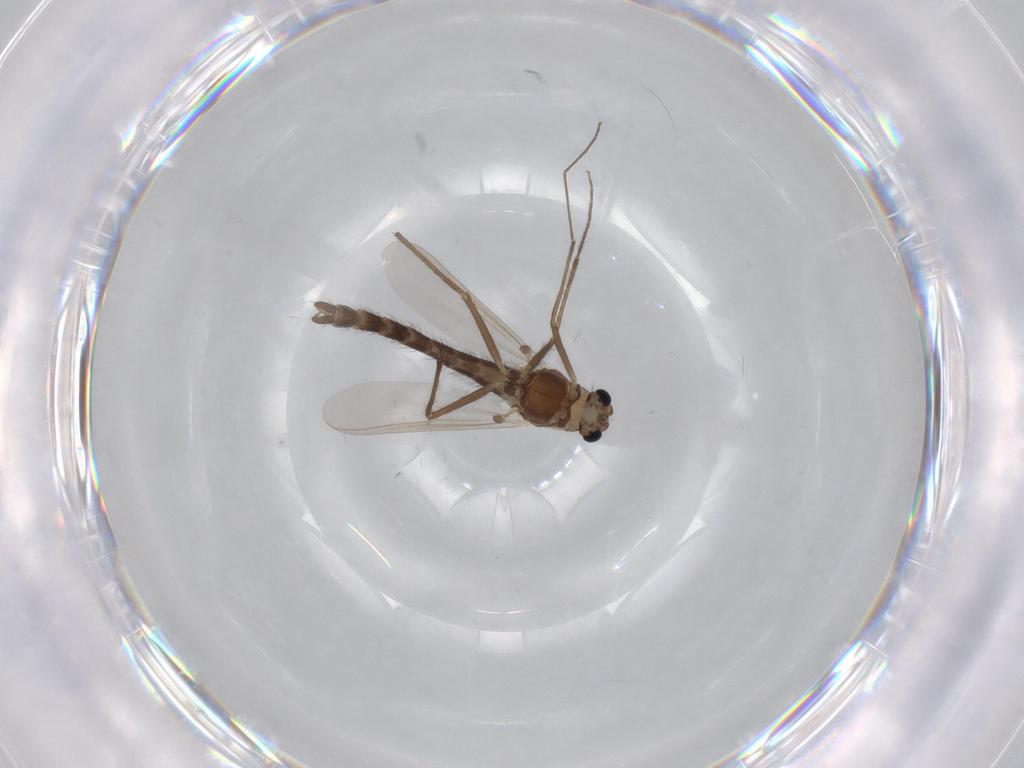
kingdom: Animalia
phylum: Arthropoda
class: Insecta
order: Diptera
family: Chironomidae
